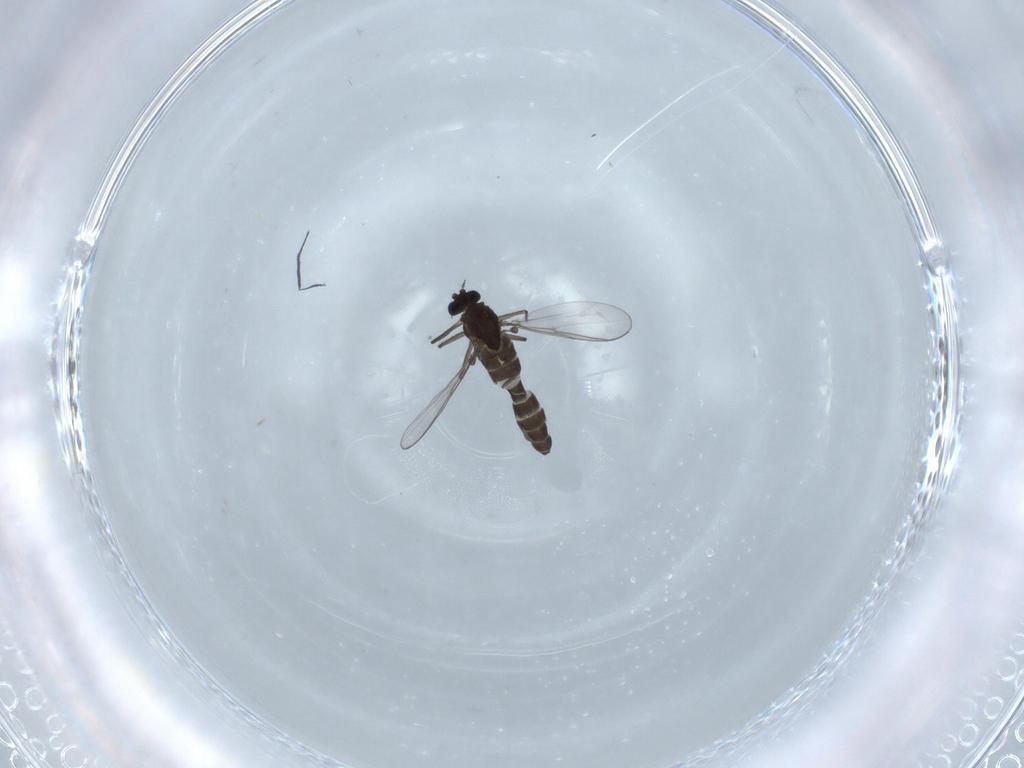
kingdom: Animalia
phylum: Arthropoda
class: Insecta
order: Diptera
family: Chironomidae
